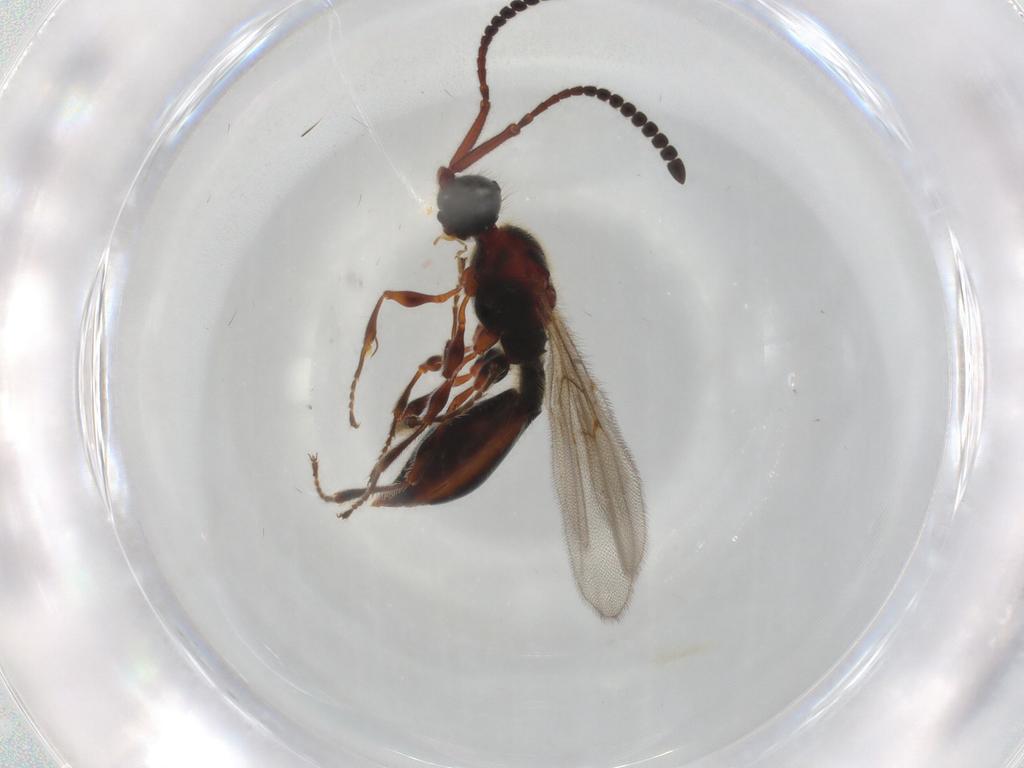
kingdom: Animalia
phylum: Arthropoda
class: Insecta
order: Hymenoptera
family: Diapriidae
